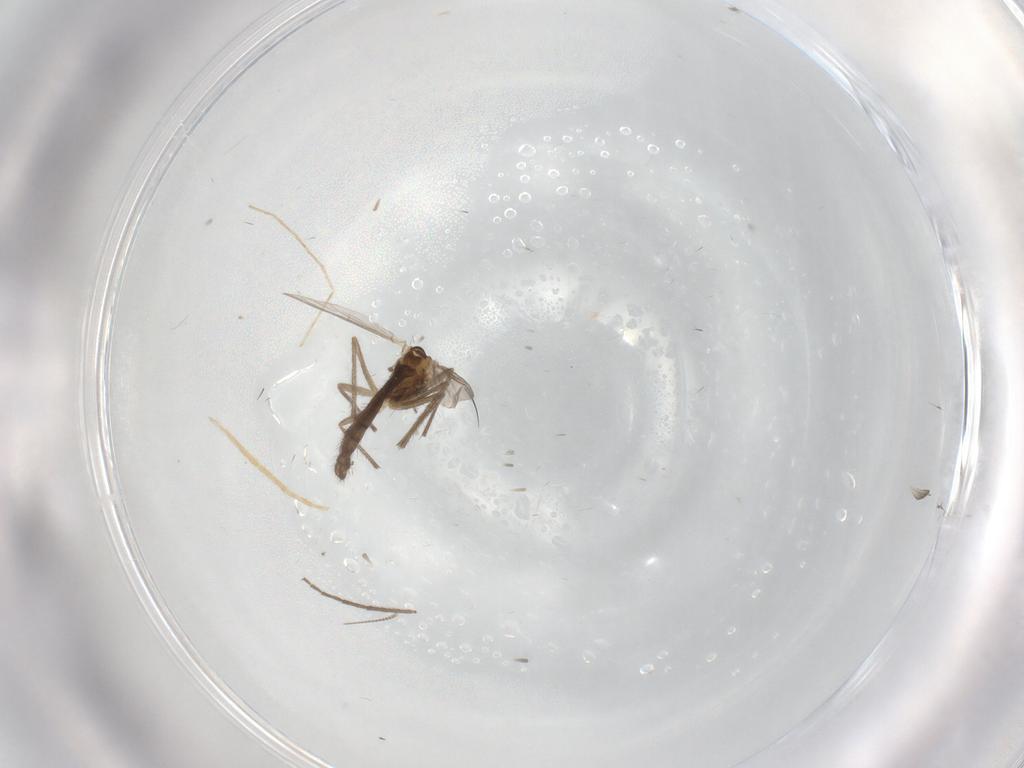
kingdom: Animalia
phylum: Arthropoda
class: Insecta
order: Diptera
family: Chironomidae
